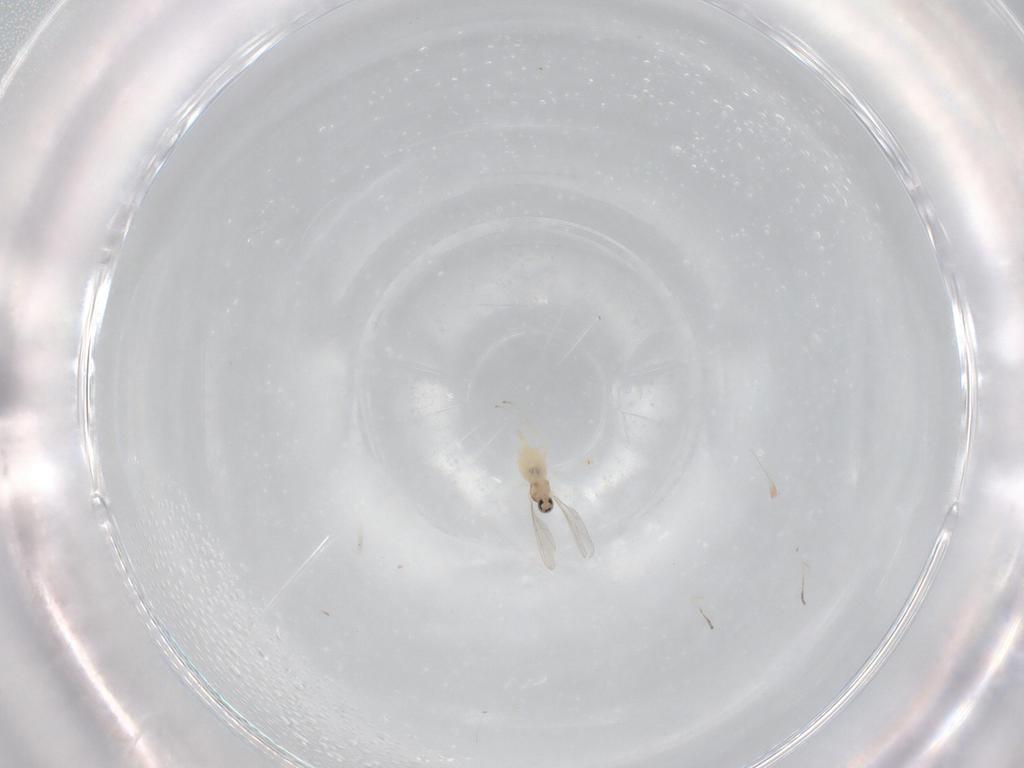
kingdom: Animalia
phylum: Arthropoda
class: Insecta
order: Diptera
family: Cecidomyiidae
